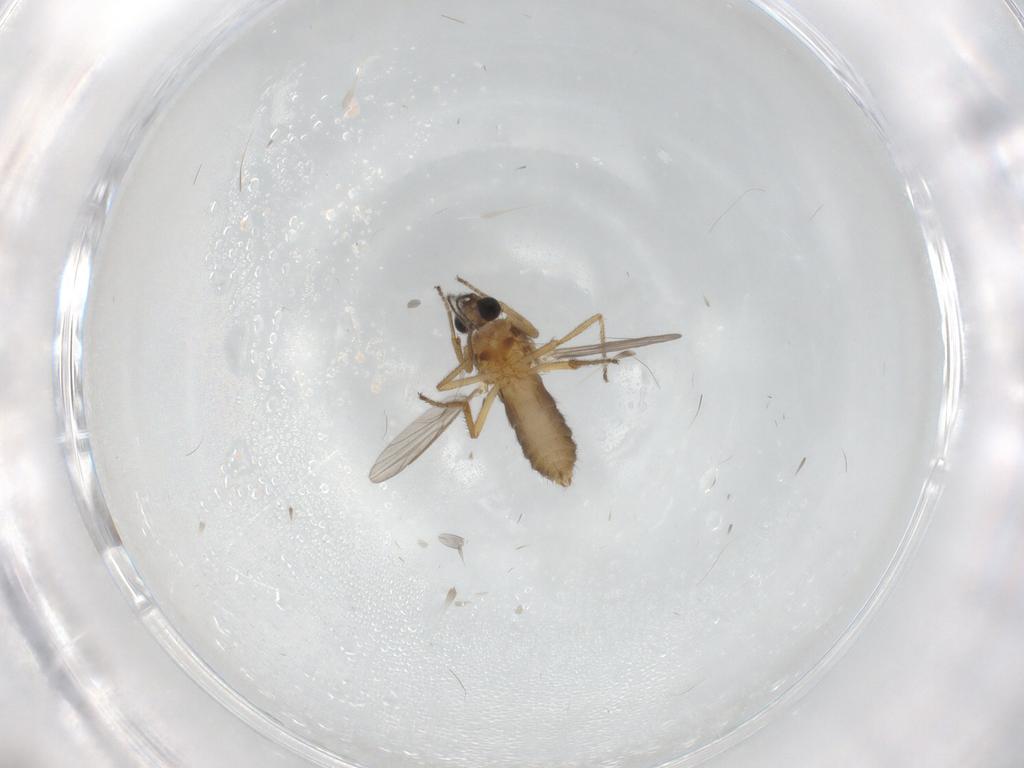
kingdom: Animalia
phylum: Arthropoda
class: Insecta
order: Diptera
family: Ceratopogonidae
